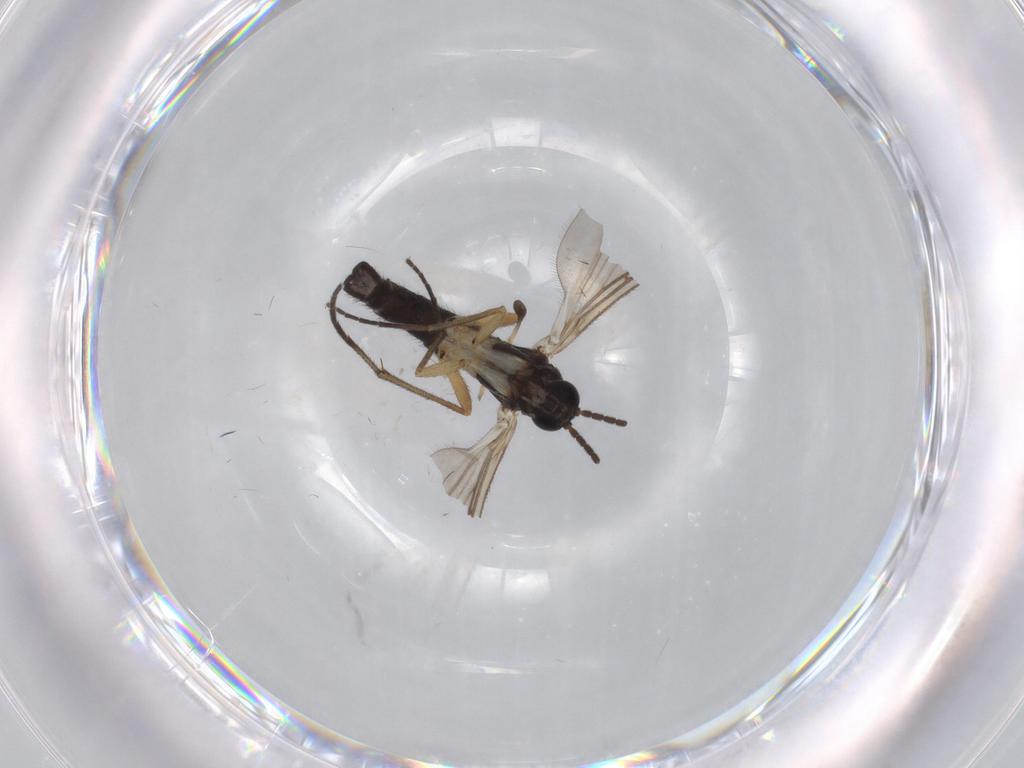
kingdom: Animalia
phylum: Arthropoda
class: Insecta
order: Diptera
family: Sciaridae
